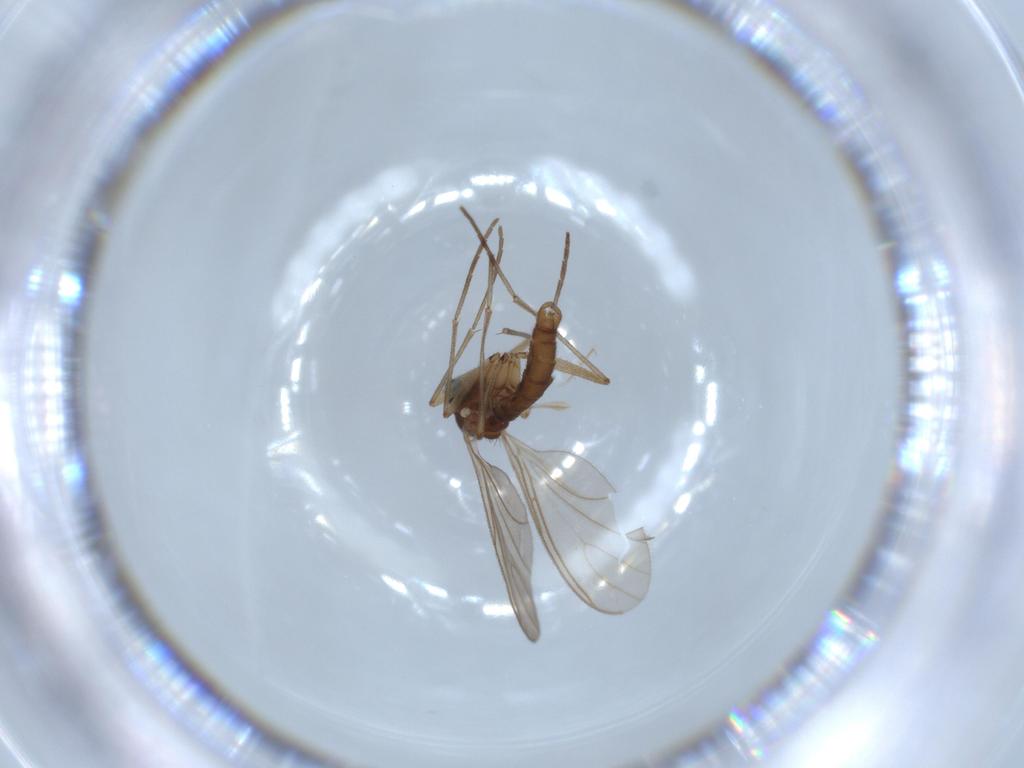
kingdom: Animalia
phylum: Arthropoda
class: Insecta
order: Diptera
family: Sciaridae
